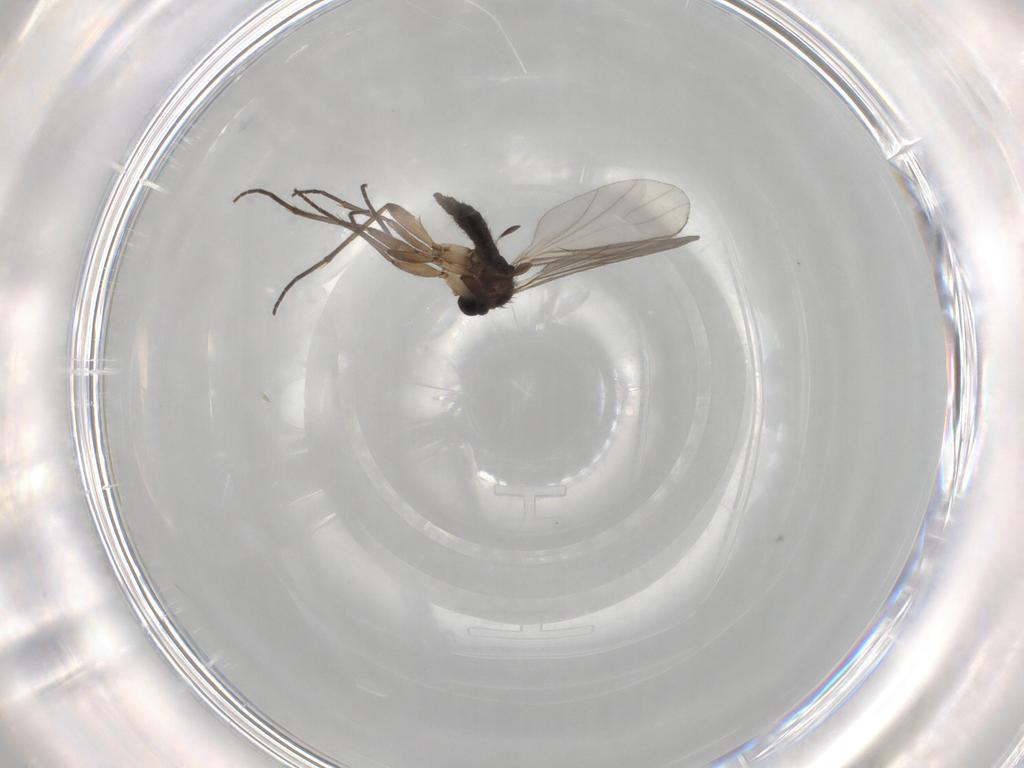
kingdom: Animalia
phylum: Arthropoda
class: Insecta
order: Diptera
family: Sciaridae
